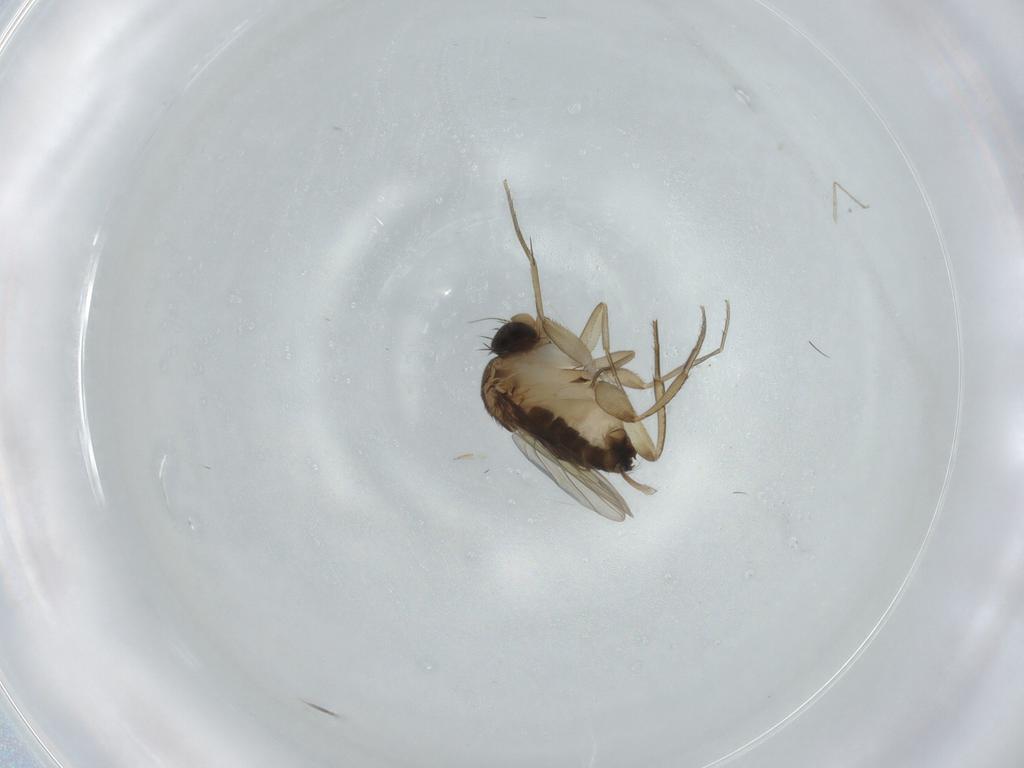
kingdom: Animalia
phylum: Arthropoda
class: Insecta
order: Diptera
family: Phoridae
